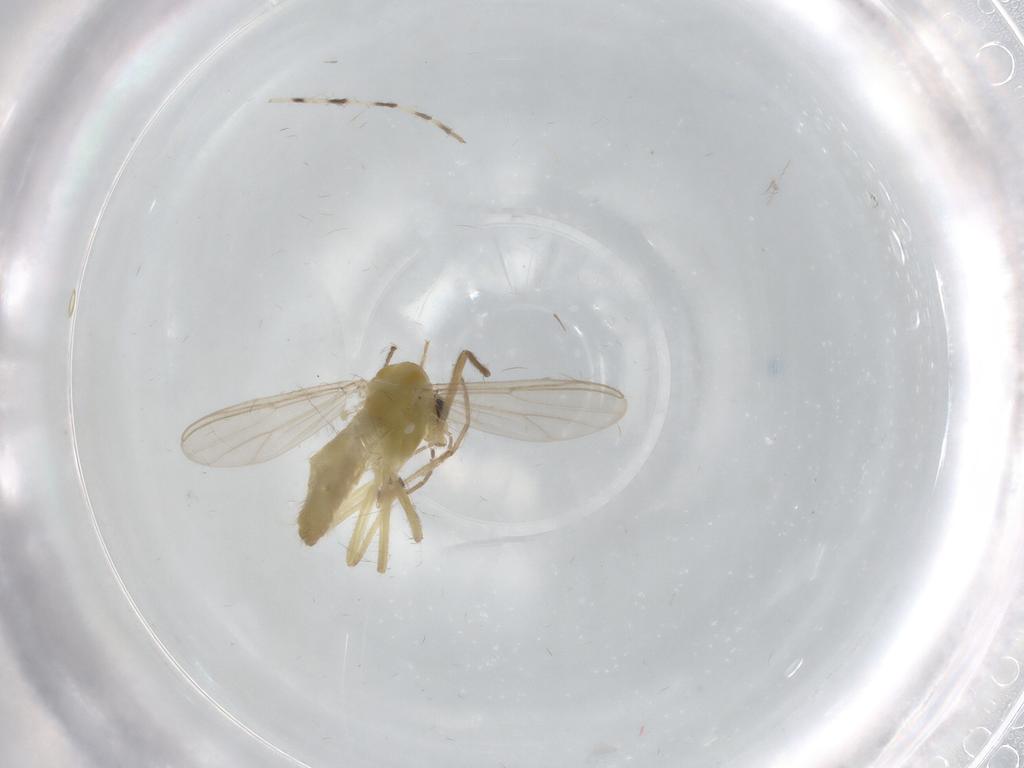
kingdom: Animalia
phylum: Arthropoda
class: Insecta
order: Diptera
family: Chironomidae
